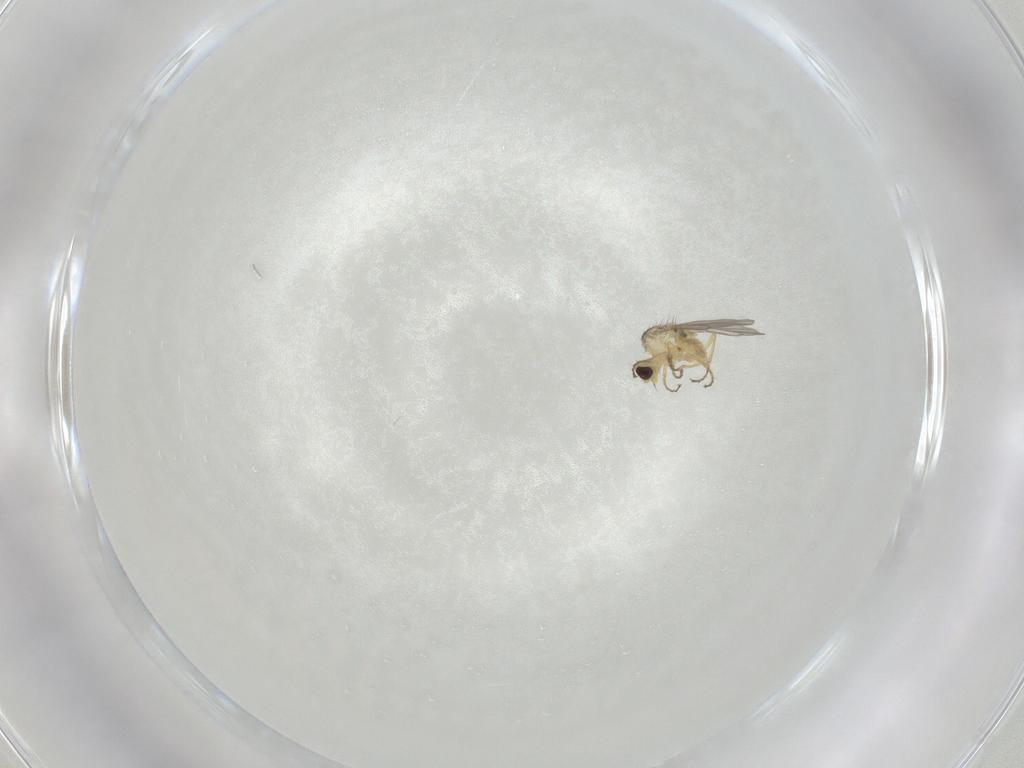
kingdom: Animalia
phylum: Arthropoda
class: Insecta
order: Diptera
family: Agromyzidae
